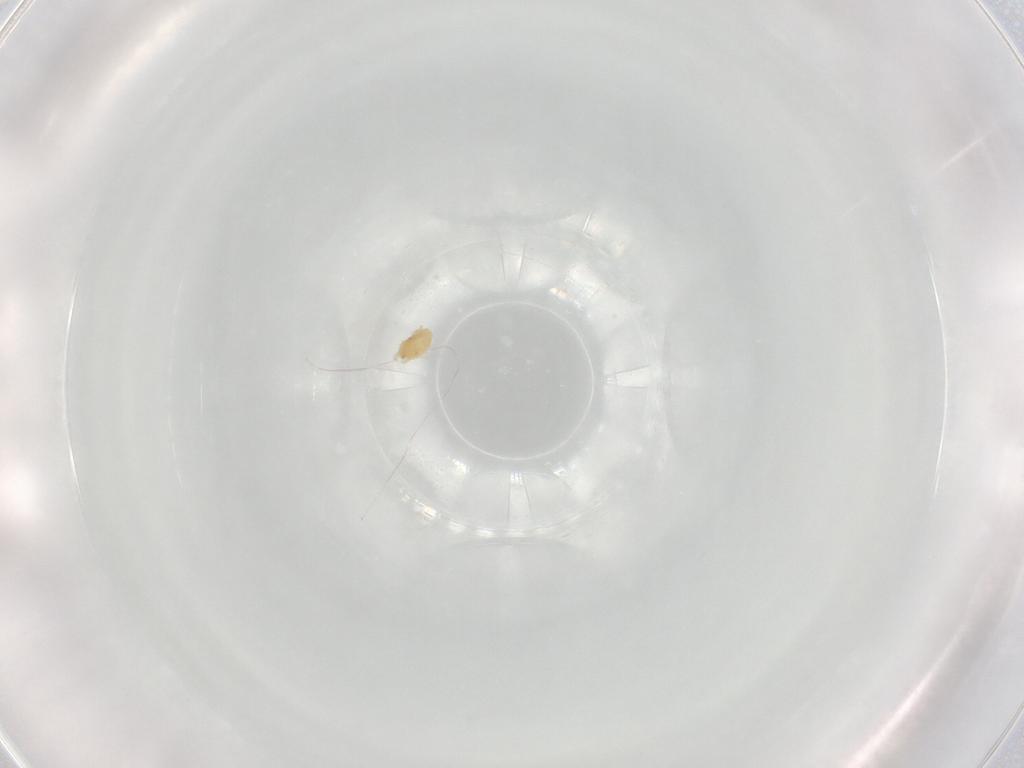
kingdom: Animalia
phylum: Arthropoda
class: Arachnida
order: Trombidiformes
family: Tetranychidae
